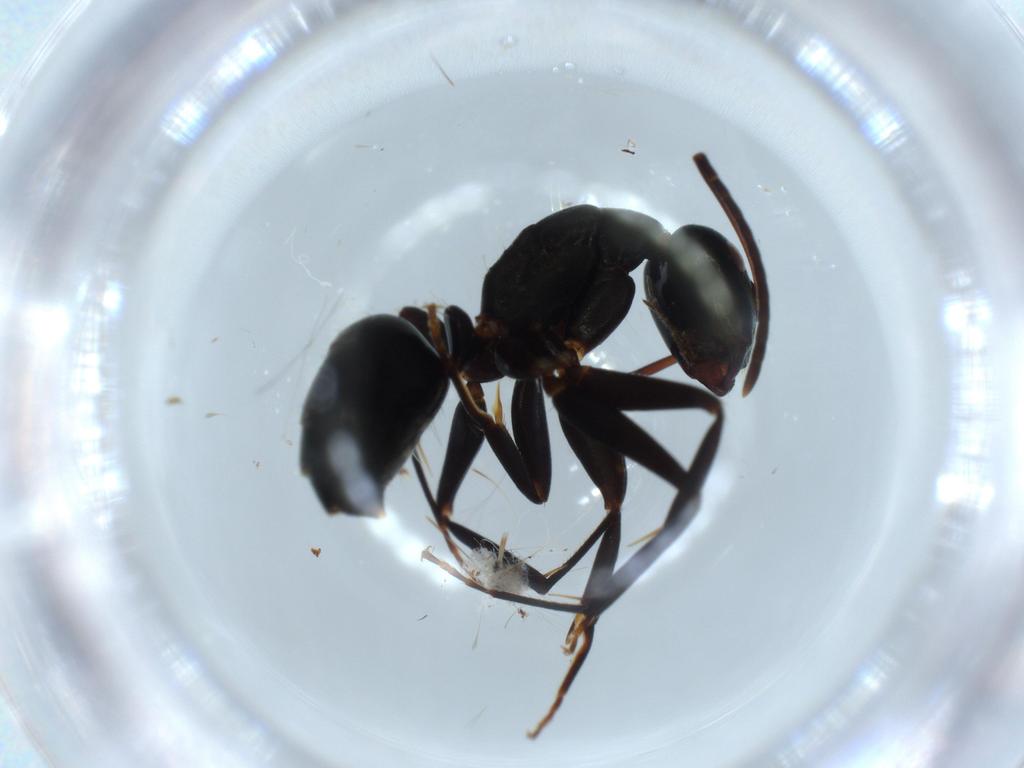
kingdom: Animalia
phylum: Arthropoda
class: Insecta
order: Hymenoptera
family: Formicidae
